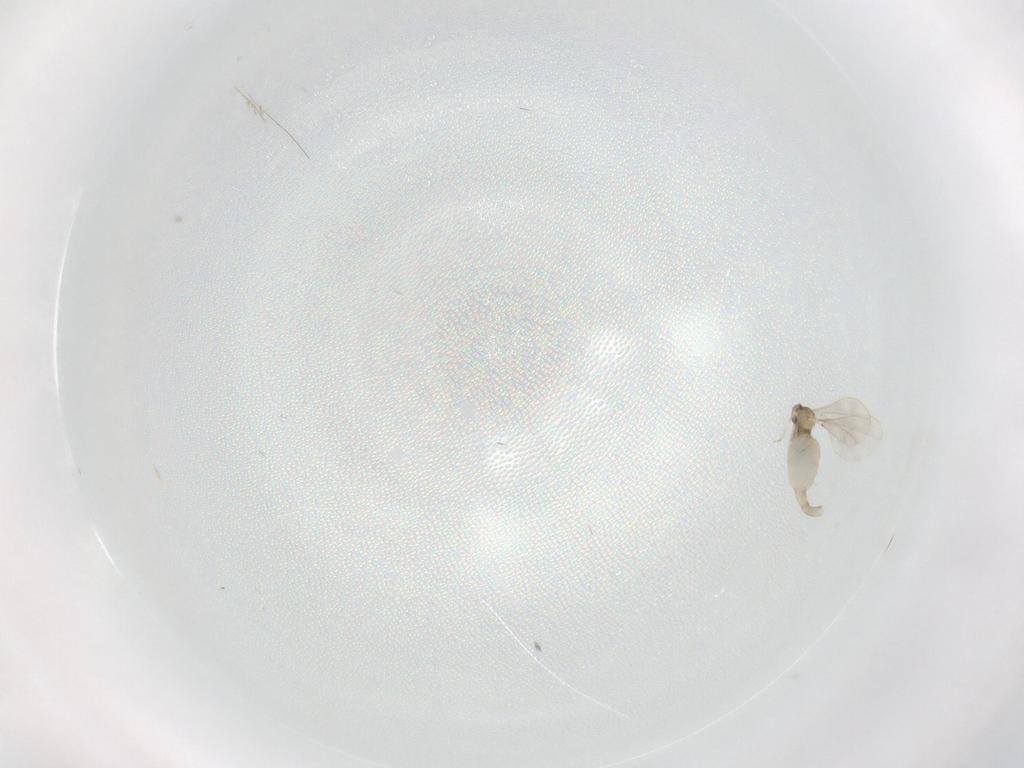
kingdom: Animalia
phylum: Arthropoda
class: Insecta
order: Diptera
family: Cecidomyiidae
